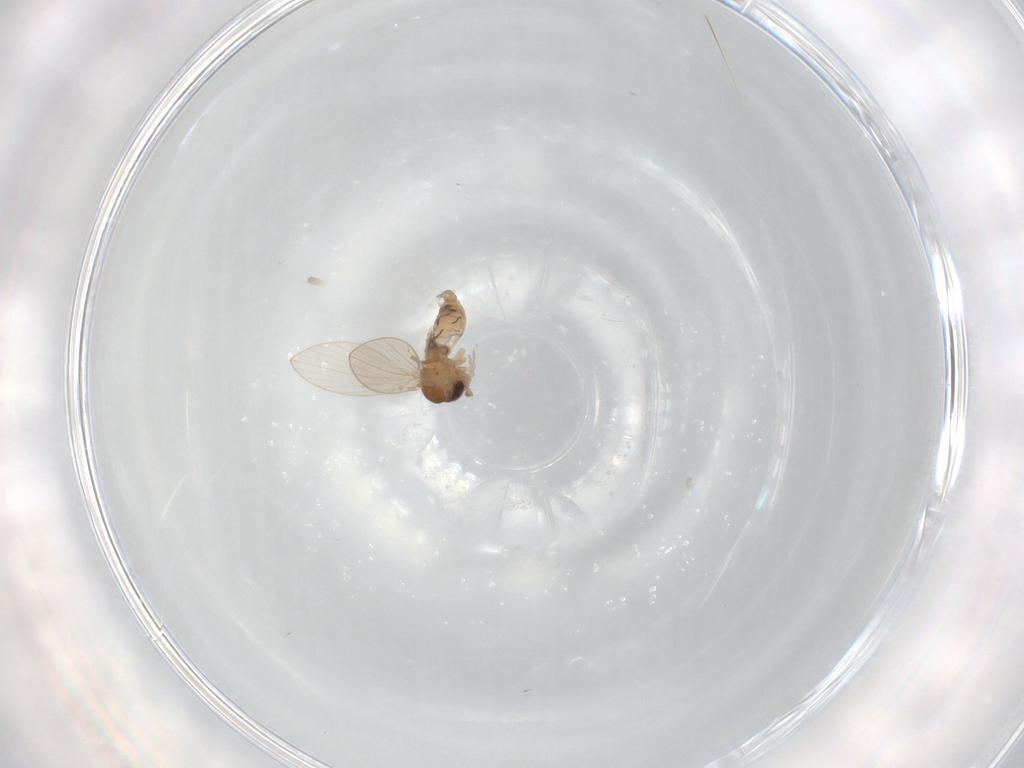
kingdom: Animalia
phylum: Arthropoda
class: Insecta
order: Diptera
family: Psychodidae
